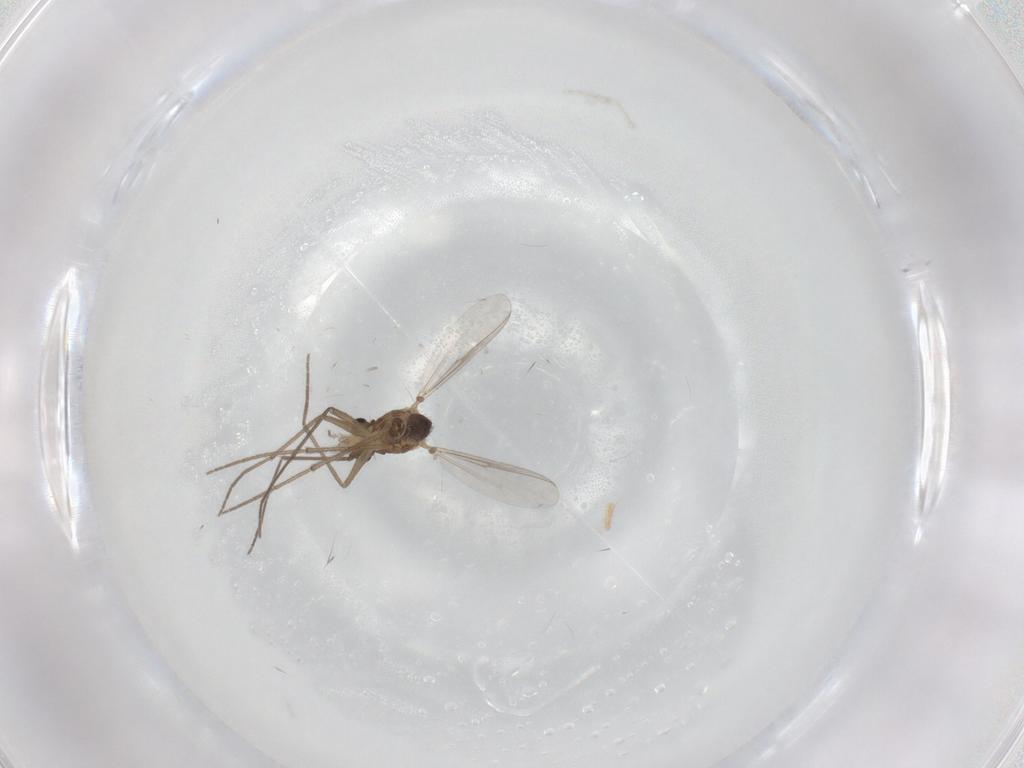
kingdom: Animalia
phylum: Arthropoda
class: Insecta
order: Diptera
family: Chironomidae
